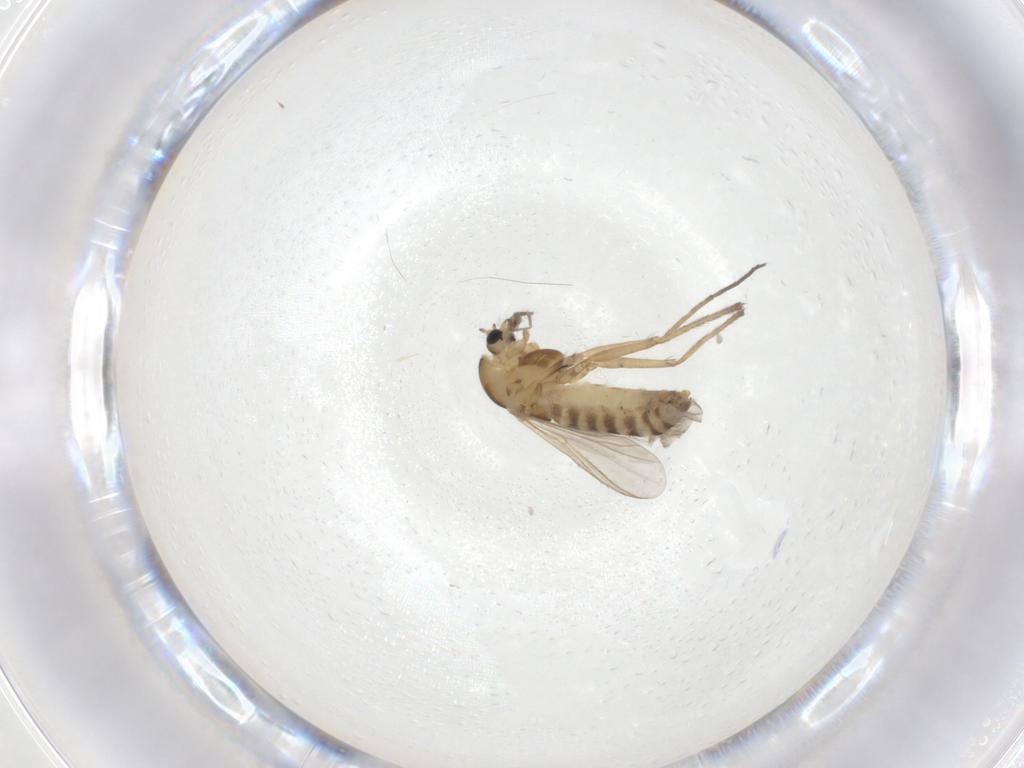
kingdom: Animalia
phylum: Arthropoda
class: Insecta
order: Diptera
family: Chironomidae
